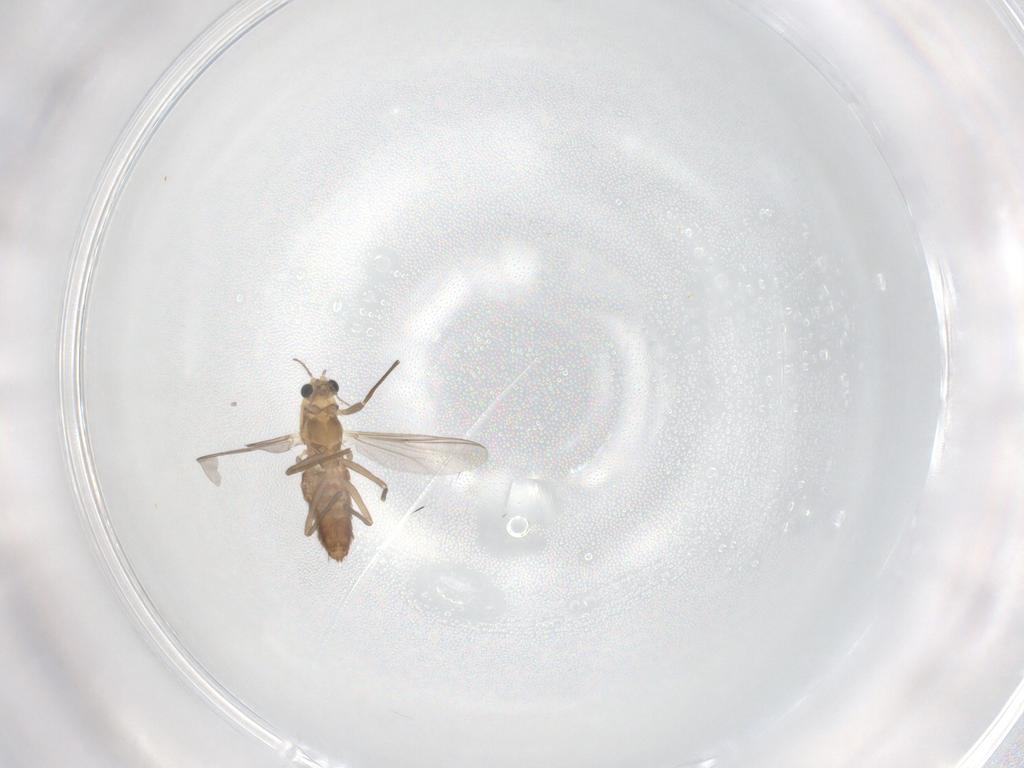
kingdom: Animalia
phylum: Arthropoda
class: Insecta
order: Diptera
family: Chironomidae
